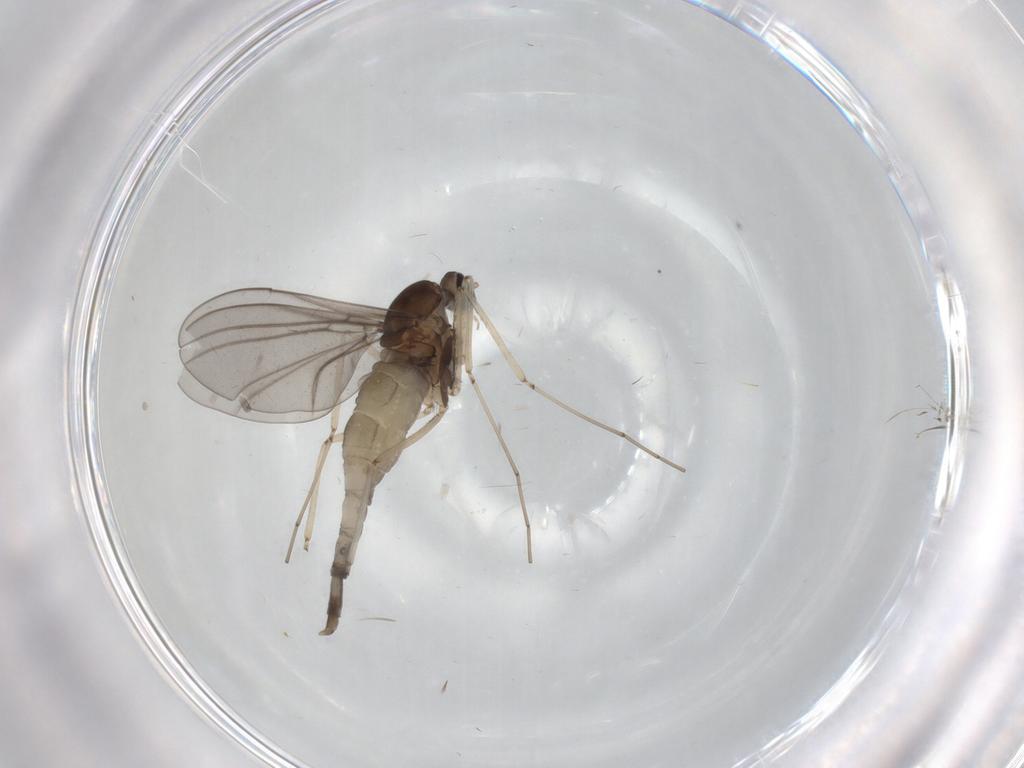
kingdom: Animalia
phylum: Arthropoda
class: Insecta
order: Diptera
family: Cecidomyiidae
